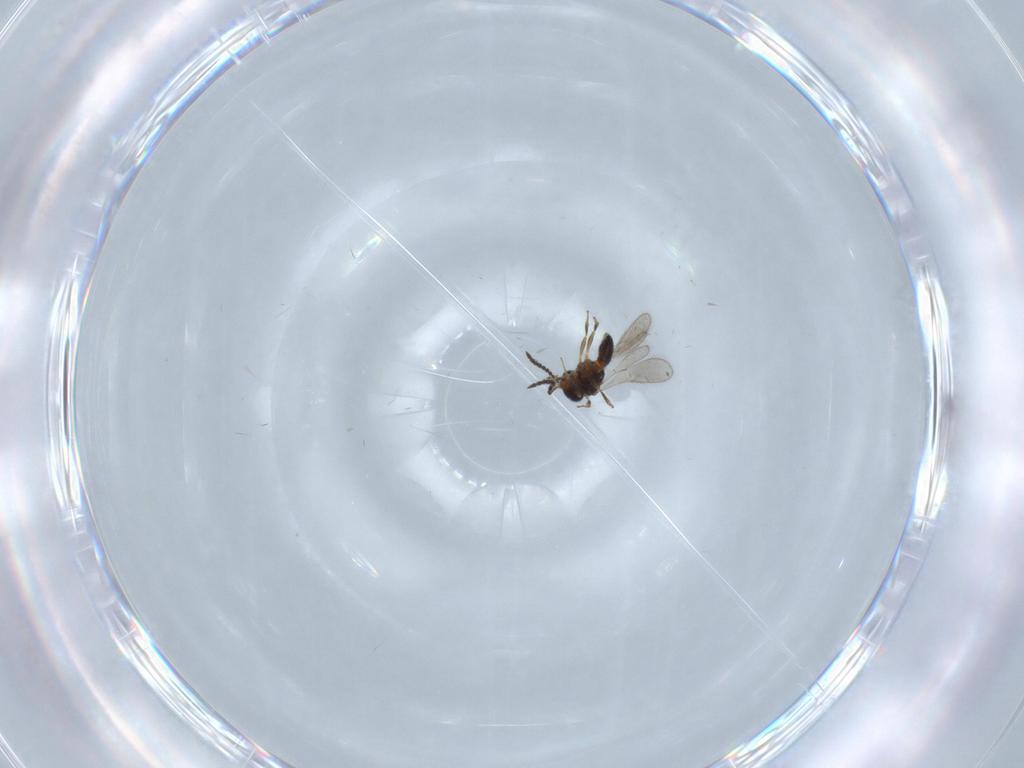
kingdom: Animalia
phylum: Arthropoda
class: Insecta
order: Hymenoptera
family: Scelionidae
